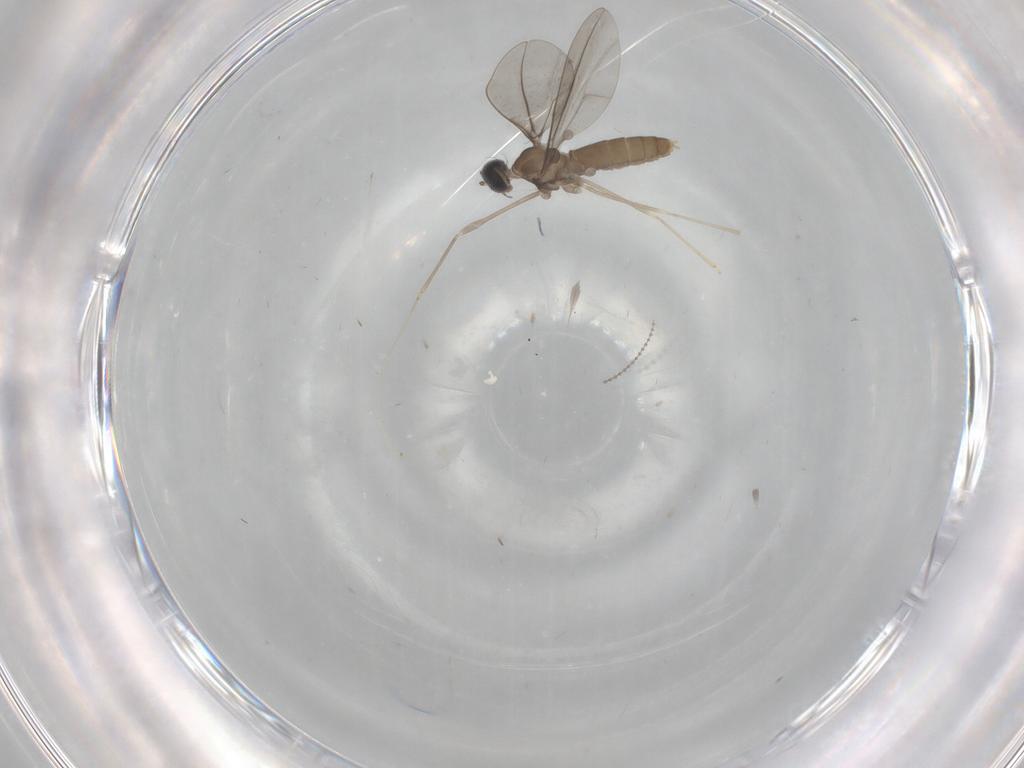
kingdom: Animalia
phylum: Arthropoda
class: Insecta
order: Diptera
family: Cecidomyiidae
